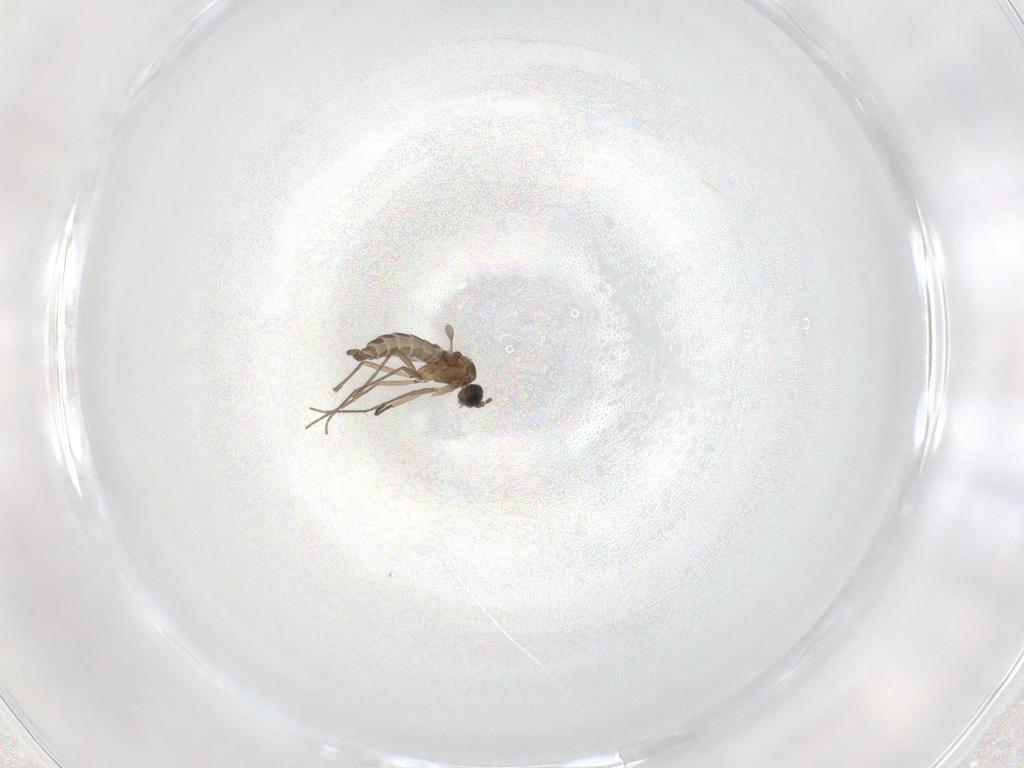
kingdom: Animalia
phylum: Arthropoda
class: Insecta
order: Diptera
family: Sciaridae
